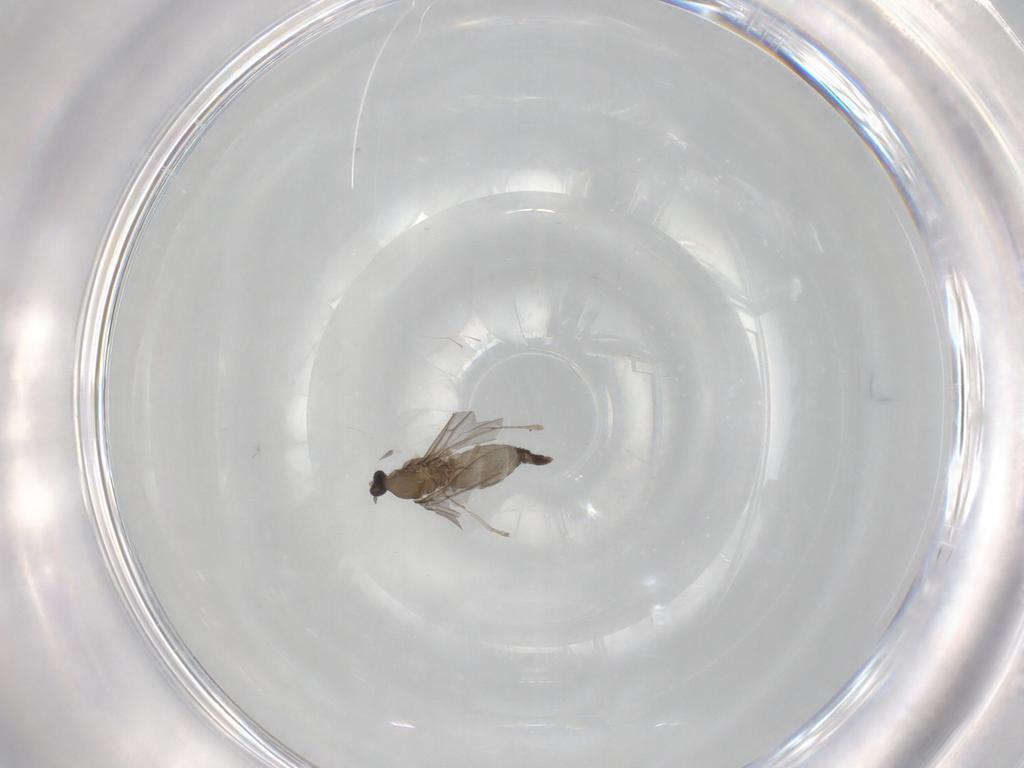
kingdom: Animalia
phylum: Arthropoda
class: Insecta
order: Diptera
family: Cecidomyiidae
